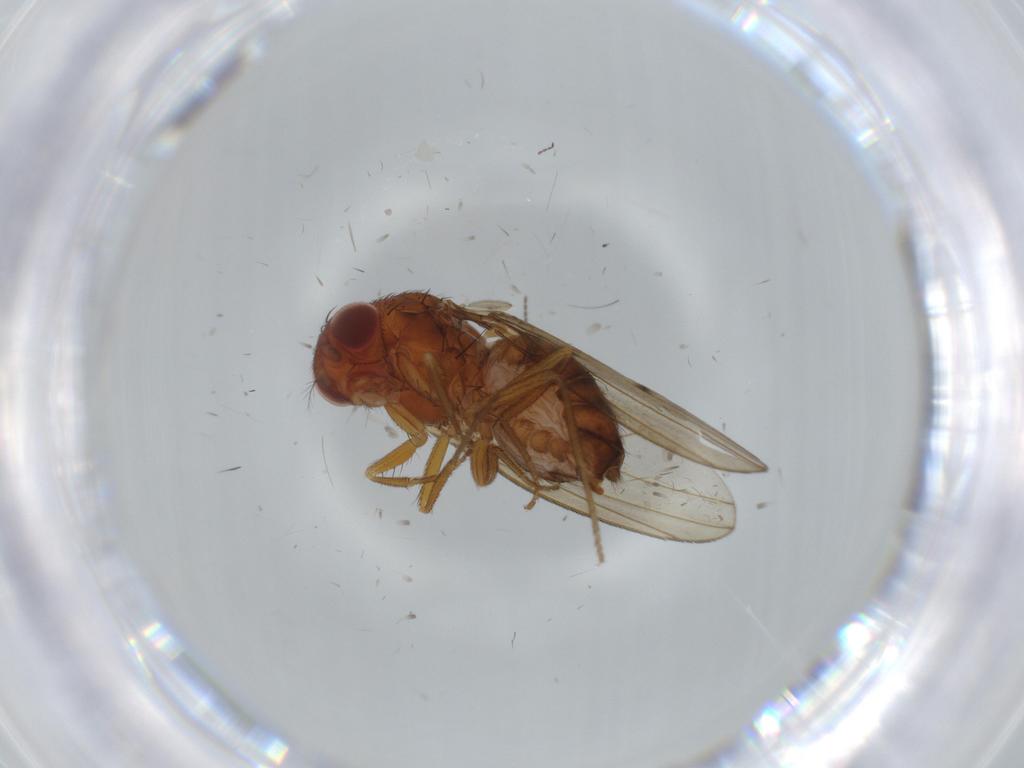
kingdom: Animalia
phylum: Arthropoda
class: Insecta
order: Diptera
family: Drosophilidae
